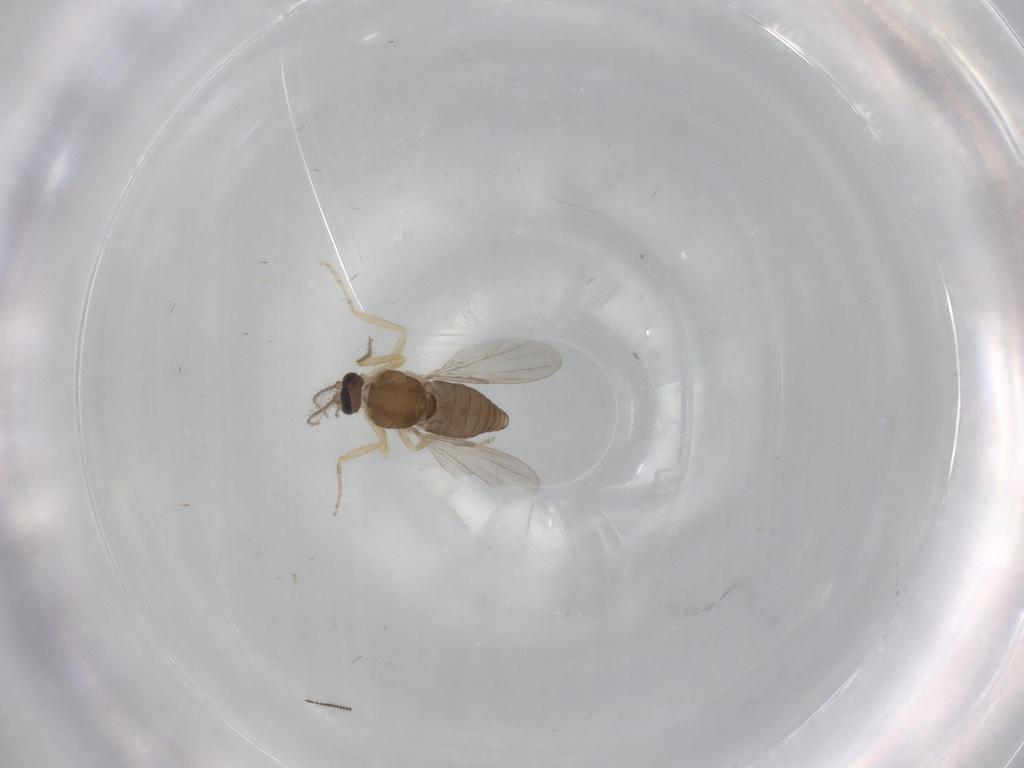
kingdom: Animalia
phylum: Arthropoda
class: Insecta
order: Diptera
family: Ceratopogonidae
